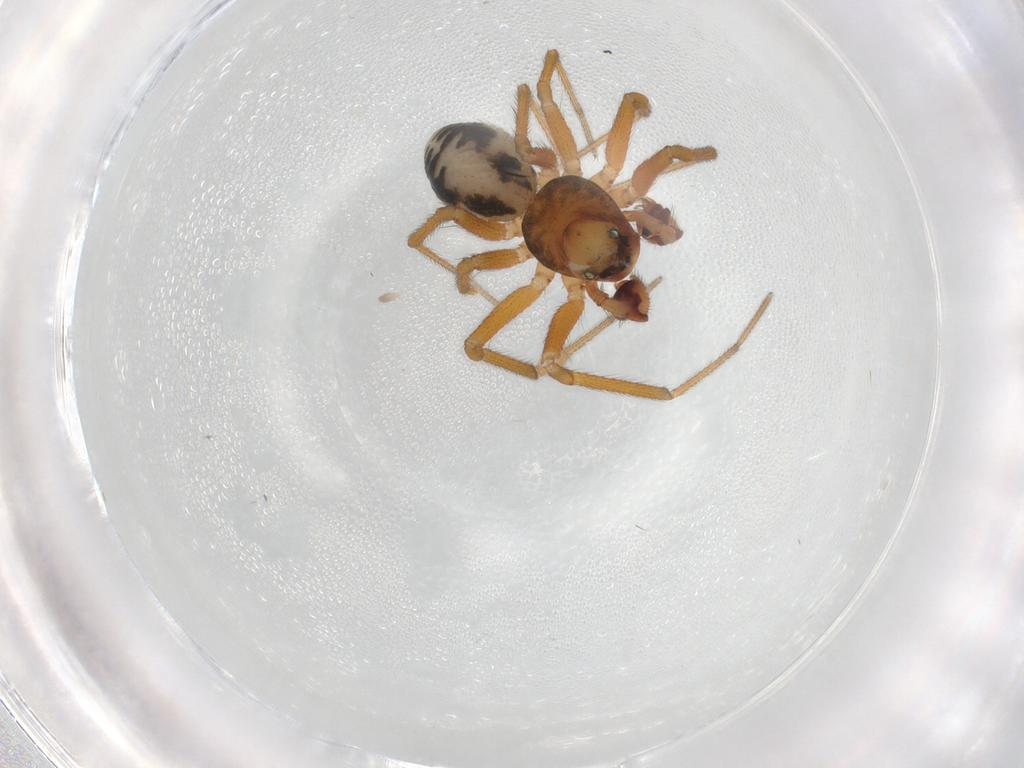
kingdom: Animalia
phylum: Arthropoda
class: Arachnida
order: Araneae
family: Linyphiidae
